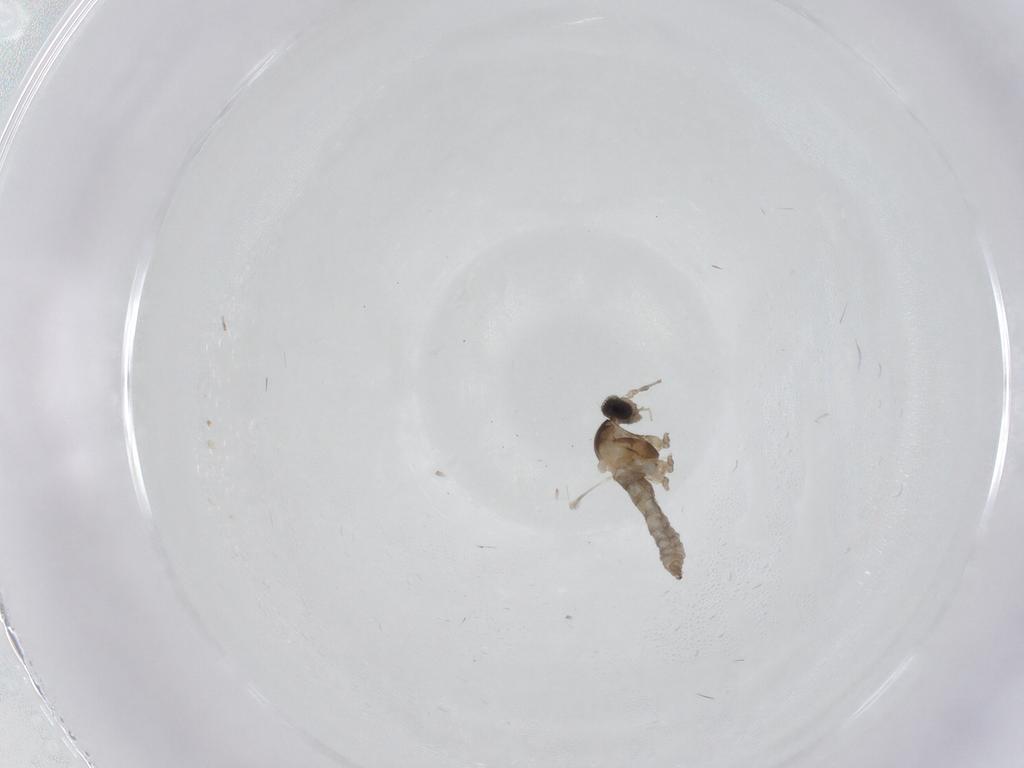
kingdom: Animalia
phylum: Arthropoda
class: Insecta
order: Diptera
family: Cecidomyiidae
